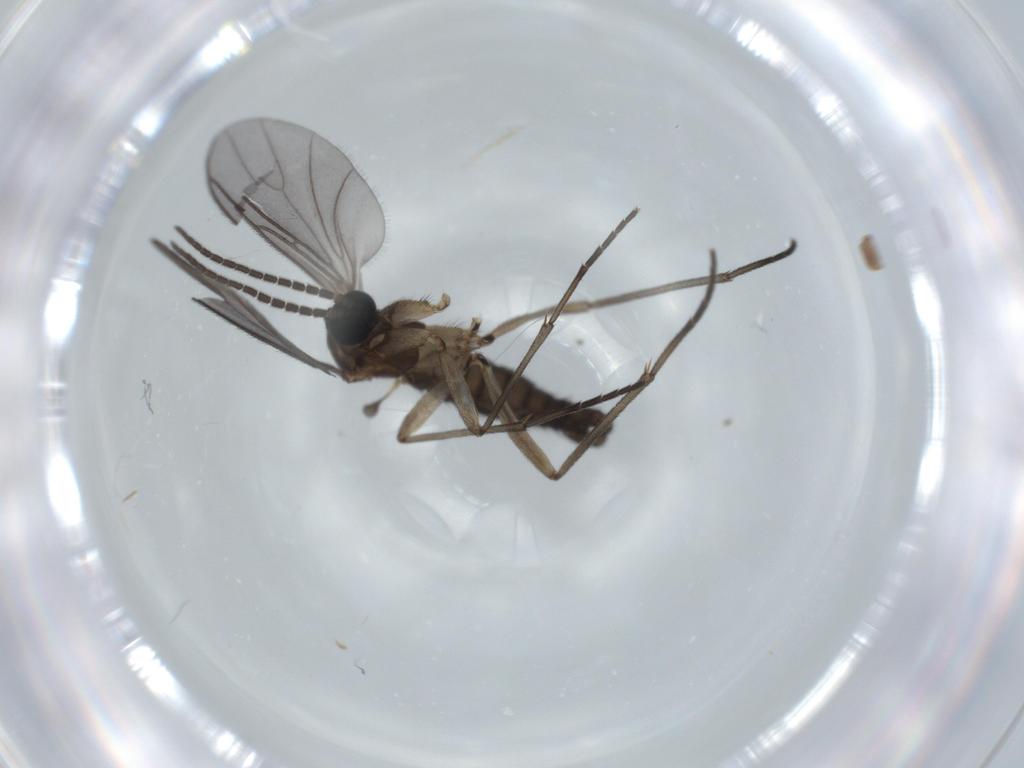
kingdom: Animalia
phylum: Arthropoda
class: Insecta
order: Diptera
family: Sciaridae
